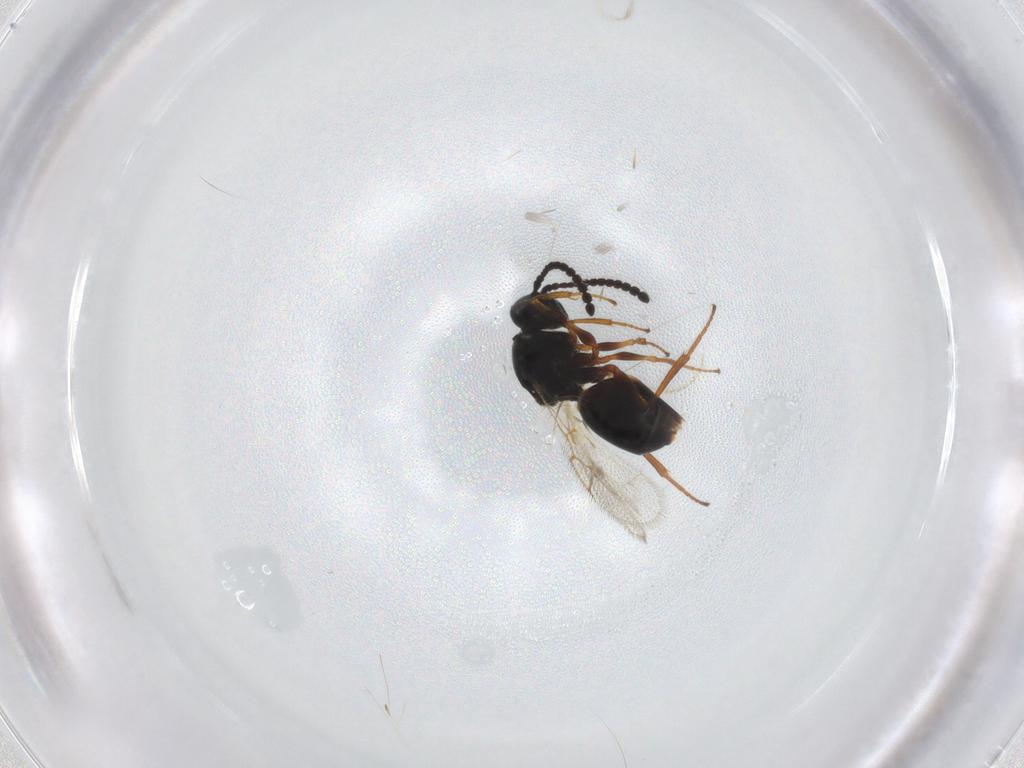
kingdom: Animalia
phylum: Arthropoda
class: Insecta
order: Hymenoptera
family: Figitidae
